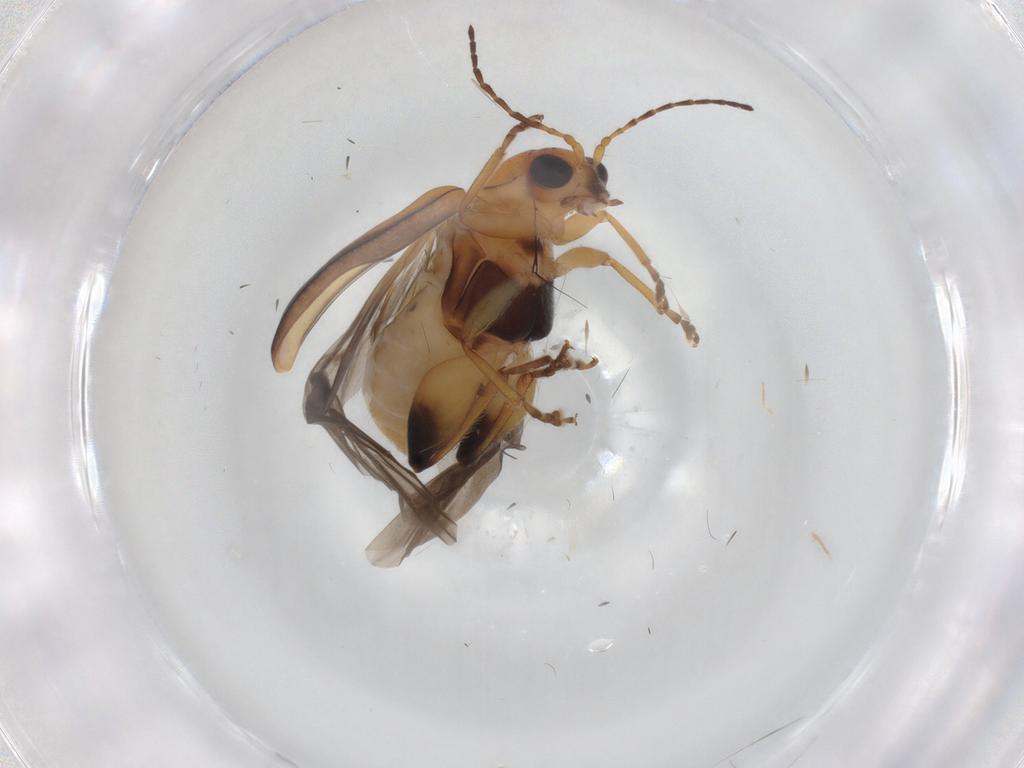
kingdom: Animalia
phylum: Arthropoda
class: Insecta
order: Coleoptera
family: Chrysomelidae
